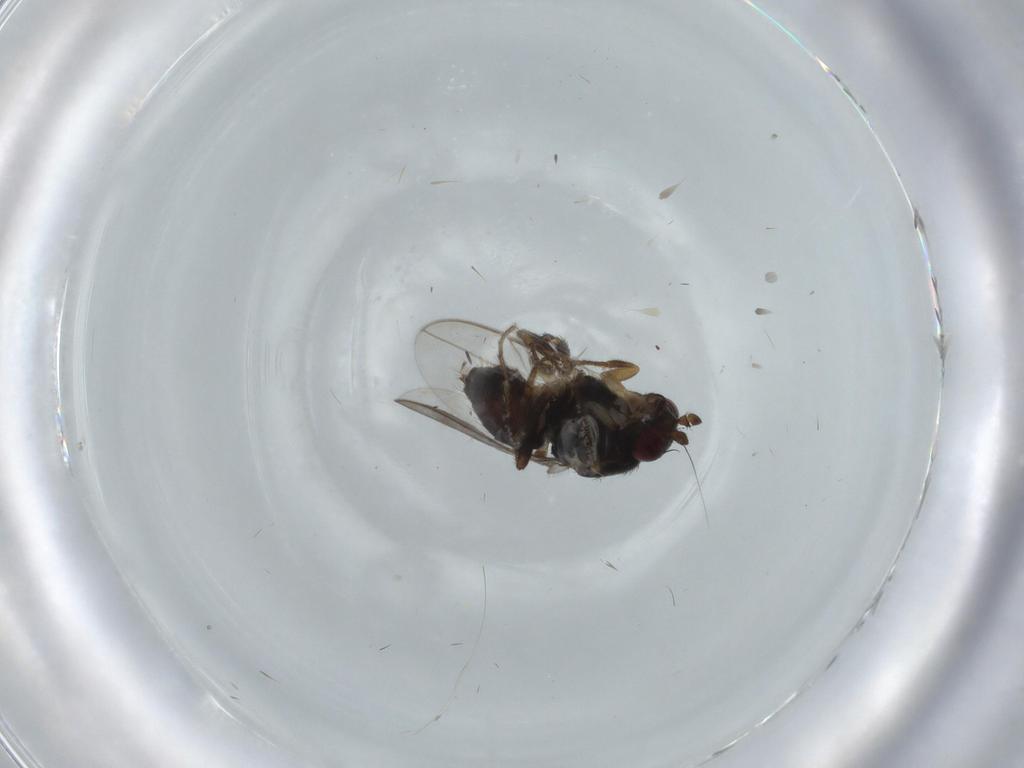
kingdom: Animalia
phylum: Arthropoda
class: Insecta
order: Diptera
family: Sphaeroceridae
